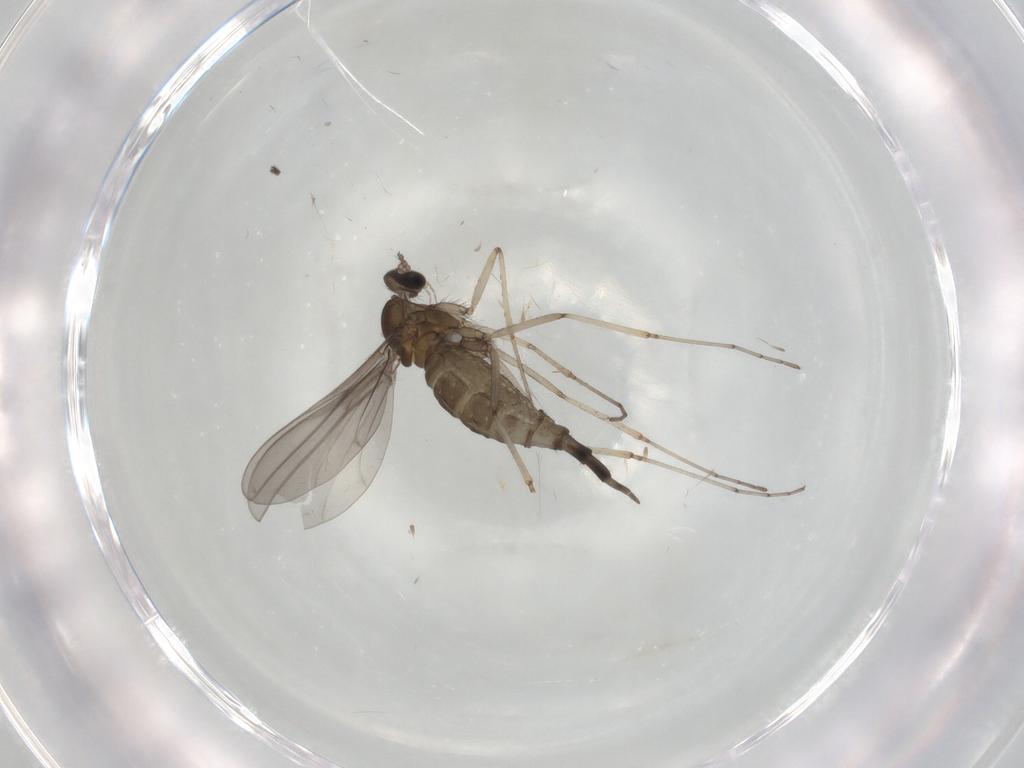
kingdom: Animalia
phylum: Arthropoda
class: Insecta
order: Diptera
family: Cecidomyiidae
